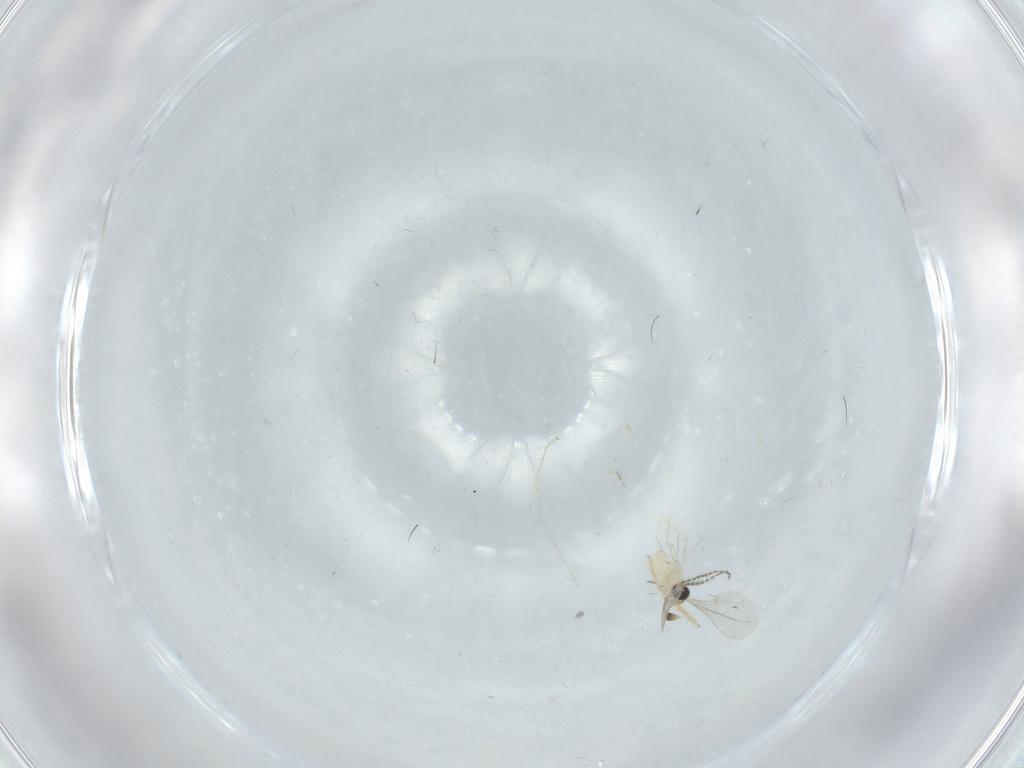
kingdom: Animalia
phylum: Arthropoda
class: Insecta
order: Diptera
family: Cecidomyiidae
